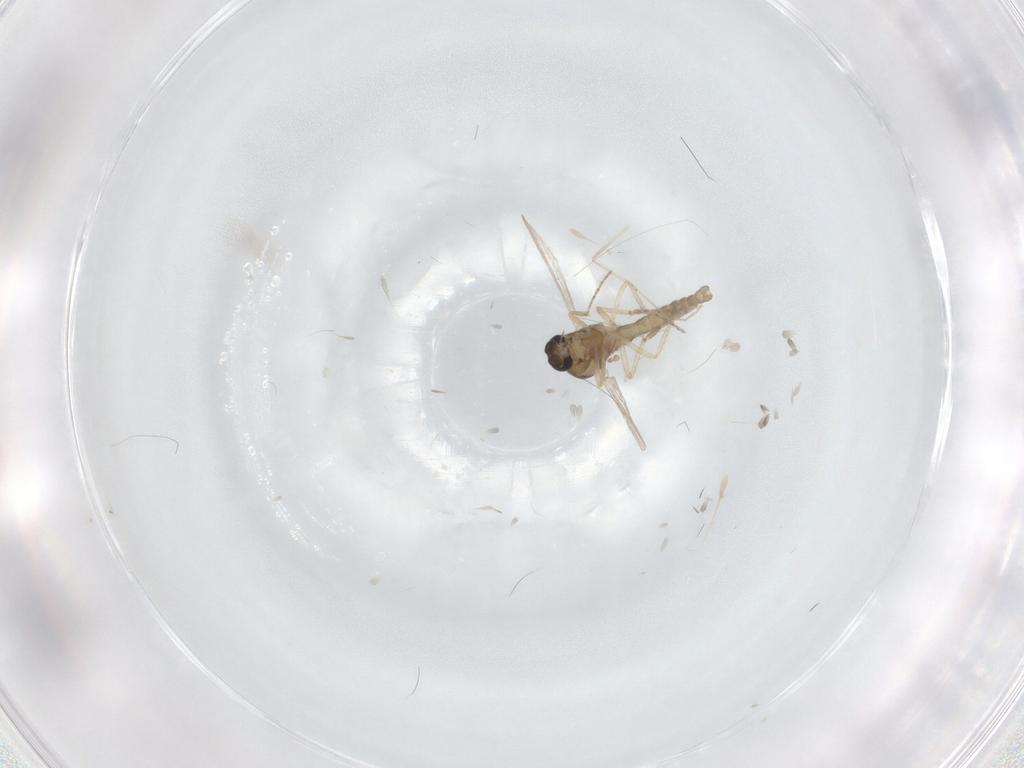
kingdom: Animalia
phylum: Arthropoda
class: Insecta
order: Diptera
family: Ceratopogonidae
